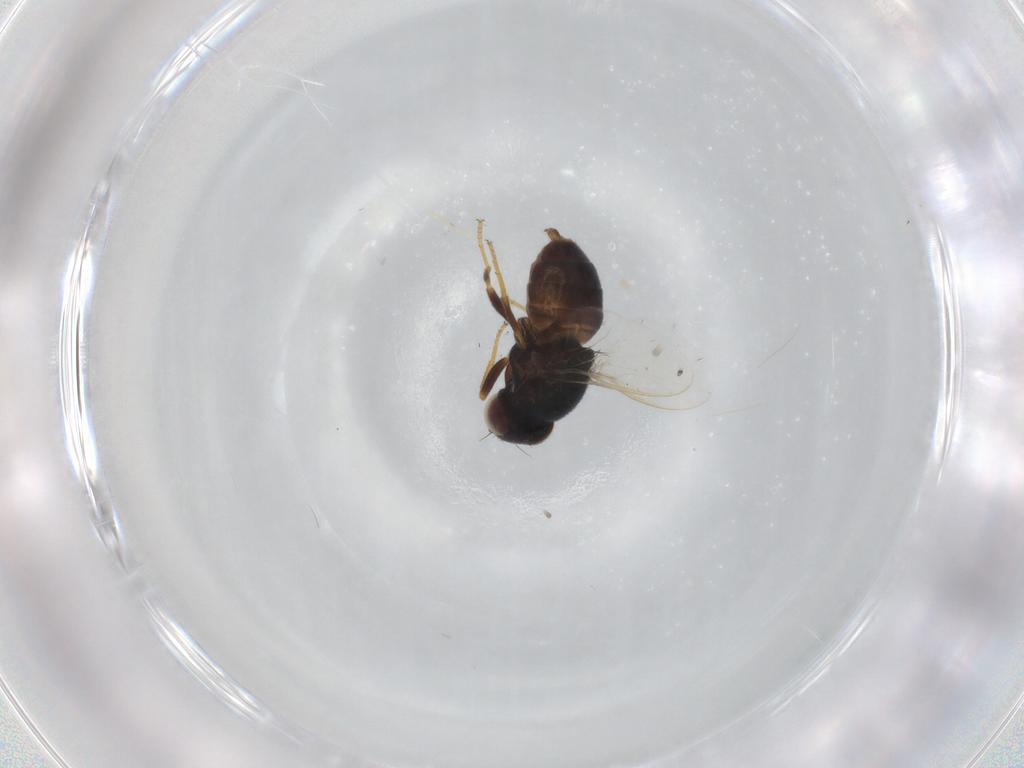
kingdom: Animalia
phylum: Arthropoda
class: Insecta
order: Diptera
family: Chloropidae
